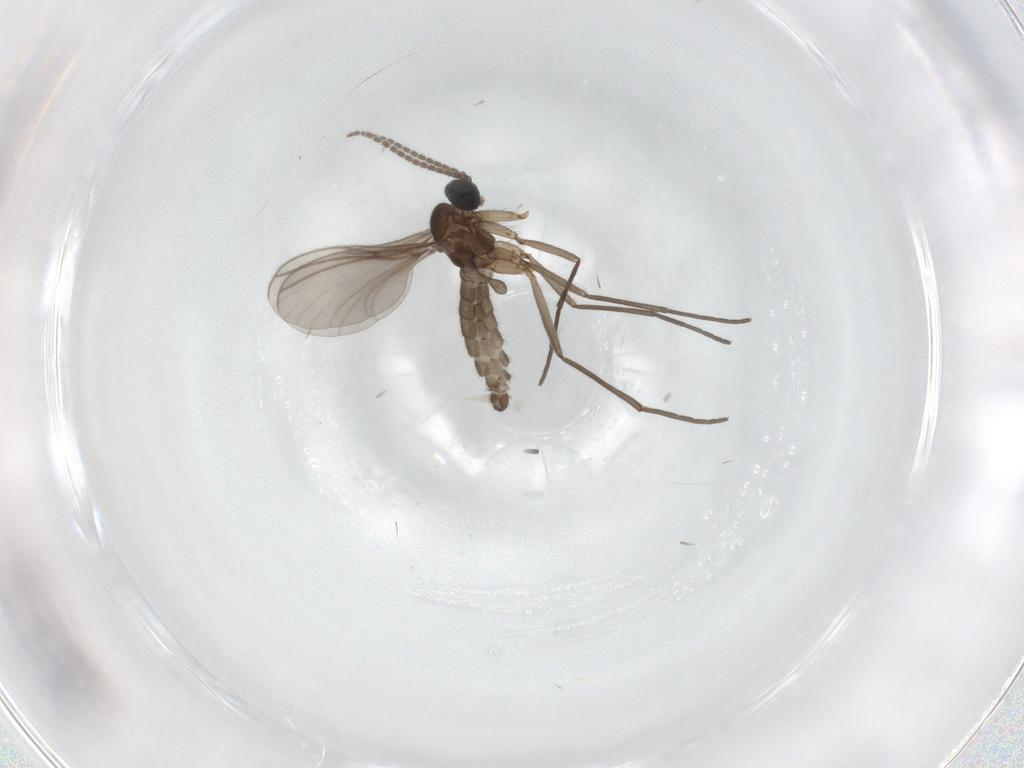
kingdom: Animalia
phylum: Arthropoda
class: Insecta
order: Diptera
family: Sciaridae
